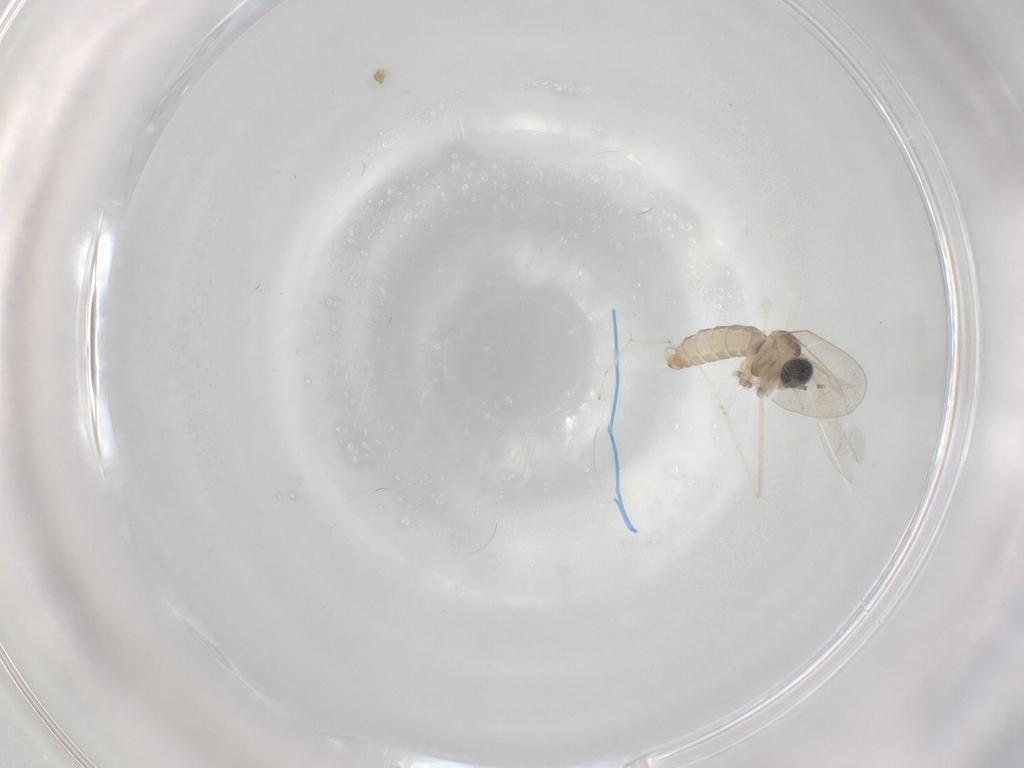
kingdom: Animalia
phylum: Arthropoda
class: Insecta
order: Diptera
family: Cecidomyiidae
